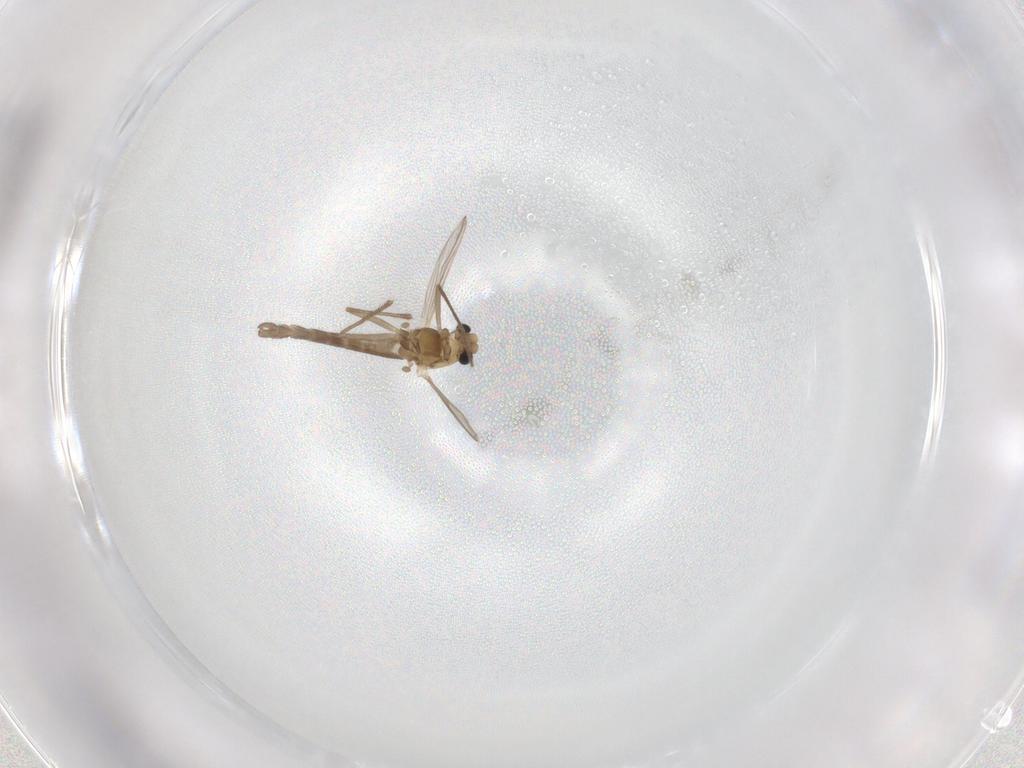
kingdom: Animalia
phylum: Arthropoda
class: Insecta
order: Diptera
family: Chironomidae
